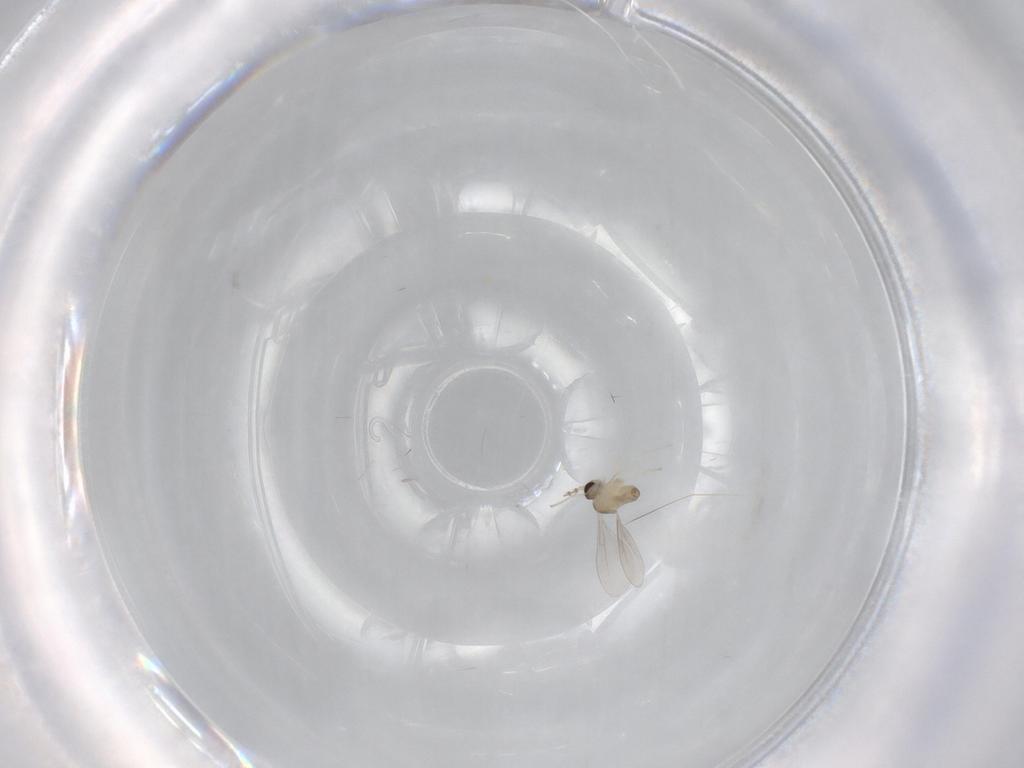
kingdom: Animalia
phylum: Arthropoda
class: Insecta
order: Diptera
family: Cecidomyiidae
